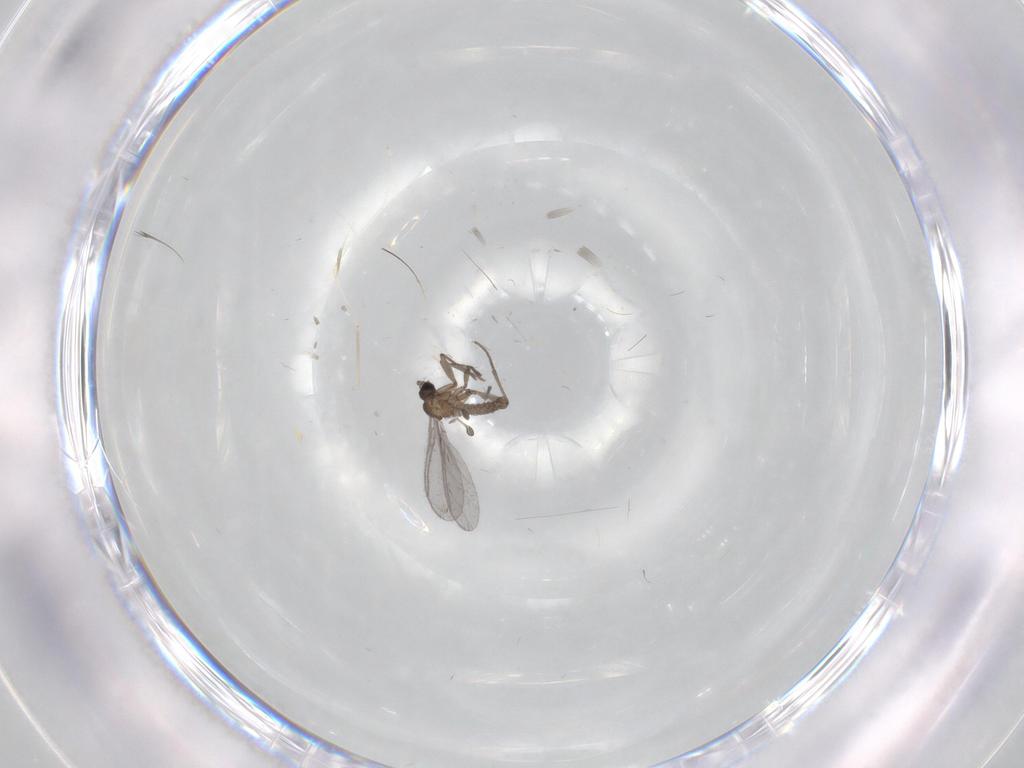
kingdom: Animalia
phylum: Arthropoda
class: Insecta
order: Diptera
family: Sciaridae
